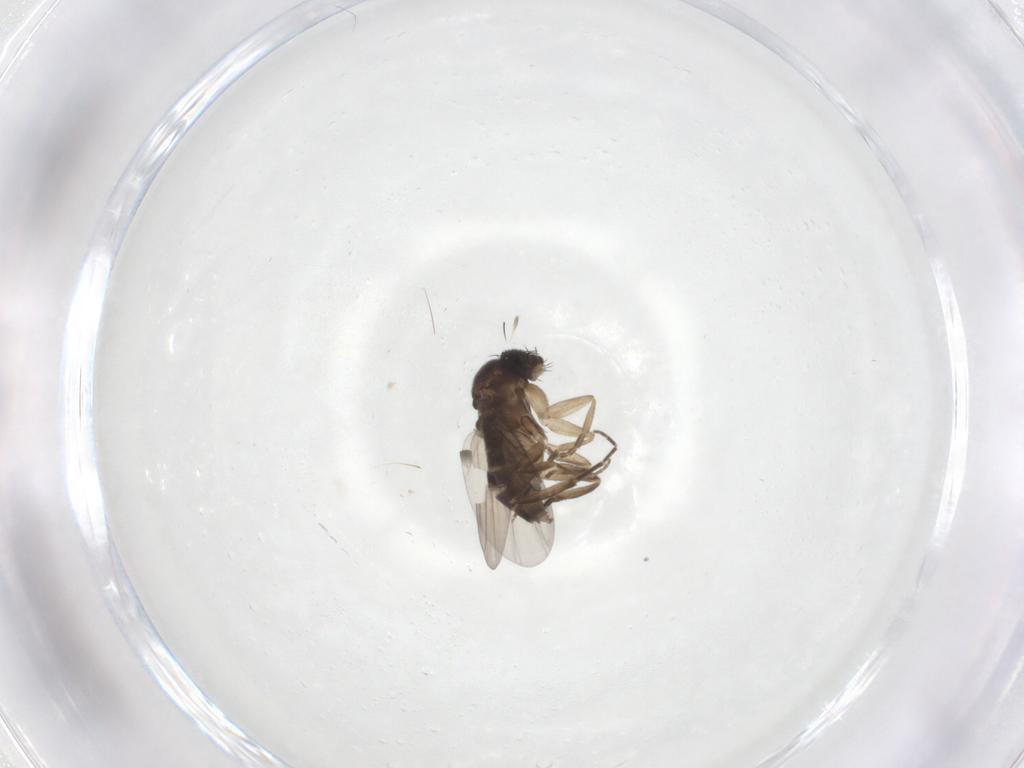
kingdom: Animalia
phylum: Arthropoda
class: Insecta
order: Diptera
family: Phoridae
